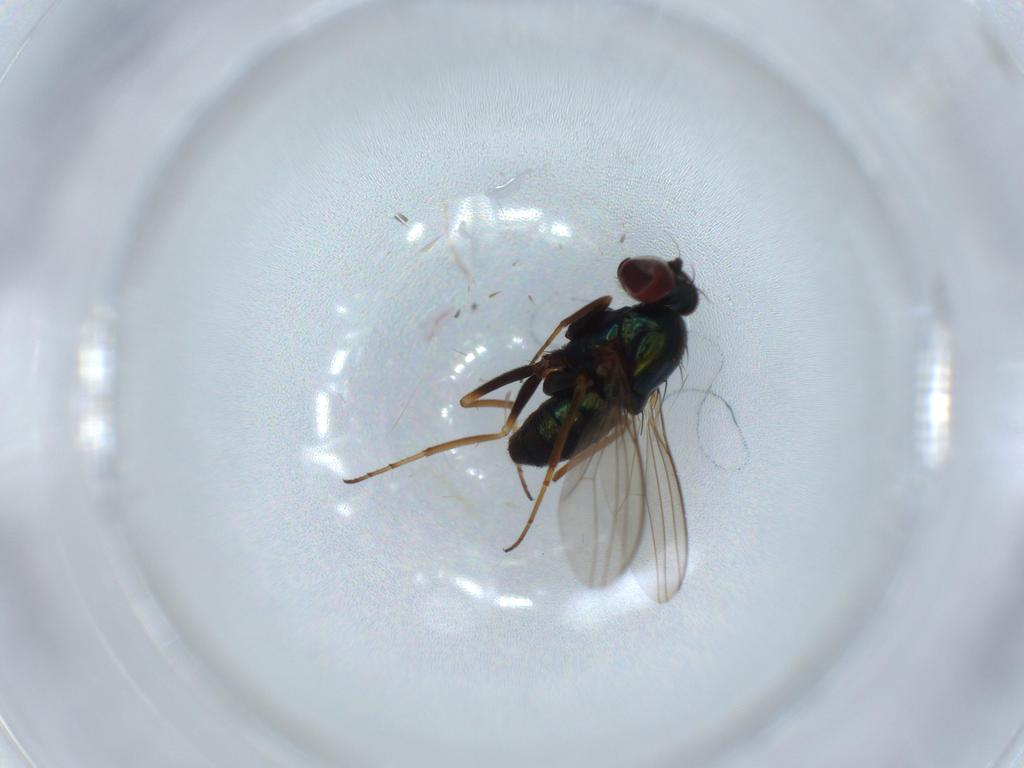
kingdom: Animalia
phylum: Arthropoda
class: Insecta
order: Diptera
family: Dolichopodidae
